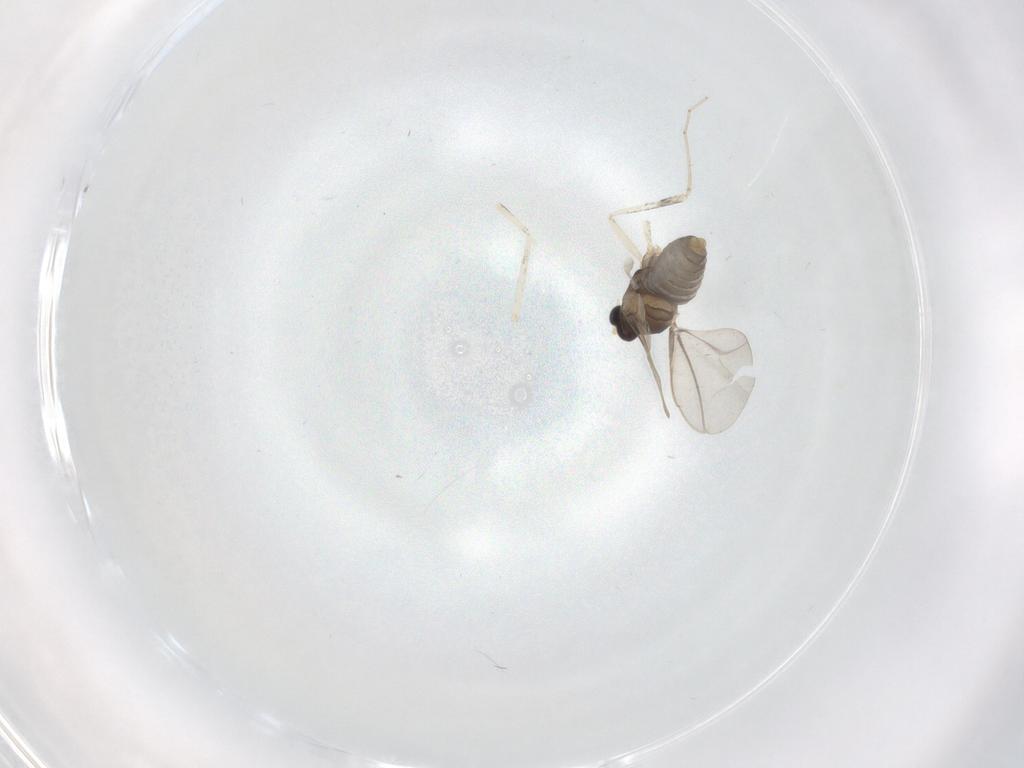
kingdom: Animalia
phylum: Arthropoda
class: Insecta
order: Diptera
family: Cecidomyiidae
